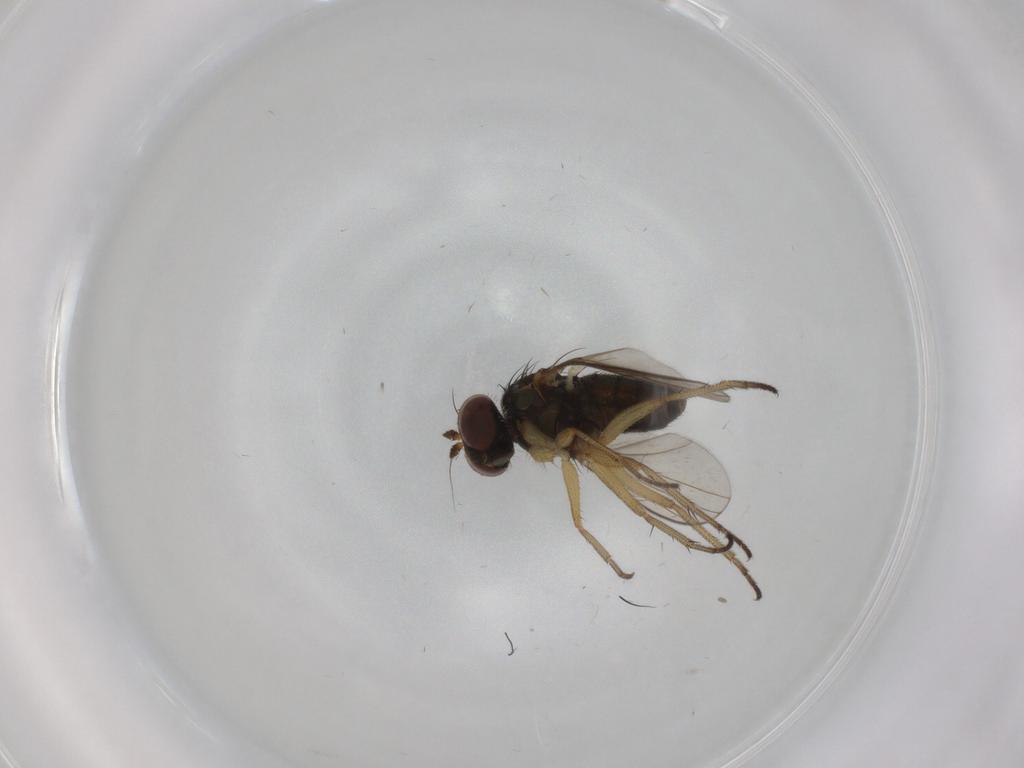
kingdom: Animalia
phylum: Arthropoda
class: Insecta
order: Diptera
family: Dolichopodidae
